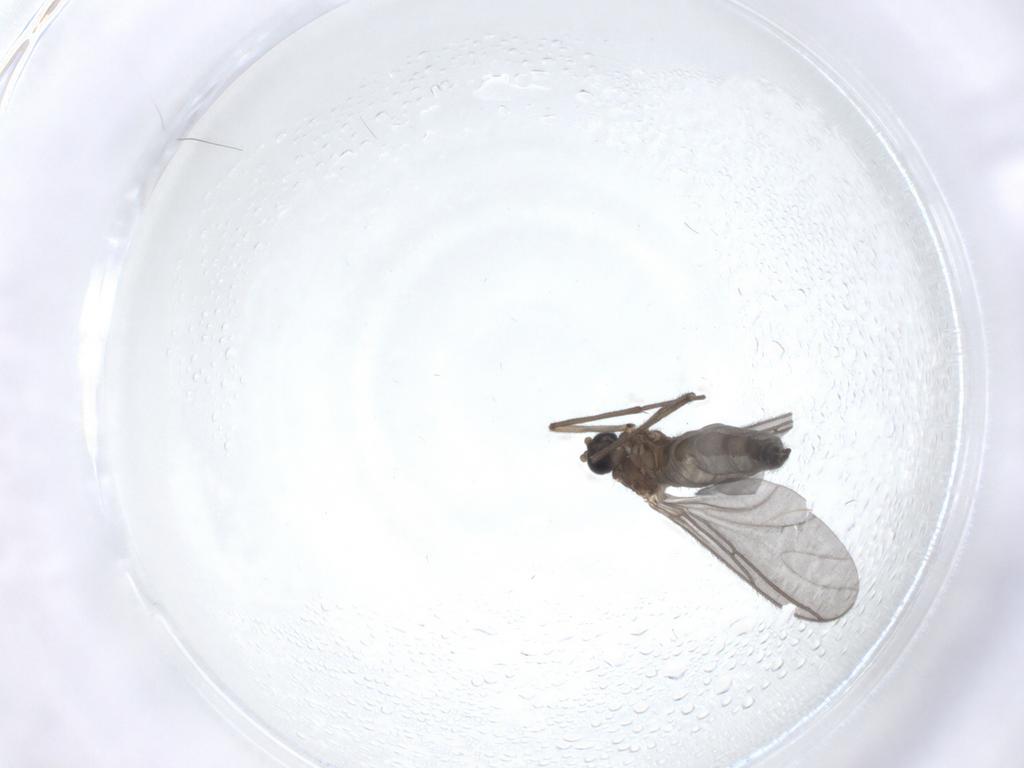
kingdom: Animalia
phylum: Arthropoda
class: Insecta
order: Diptera
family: Sciaridae
